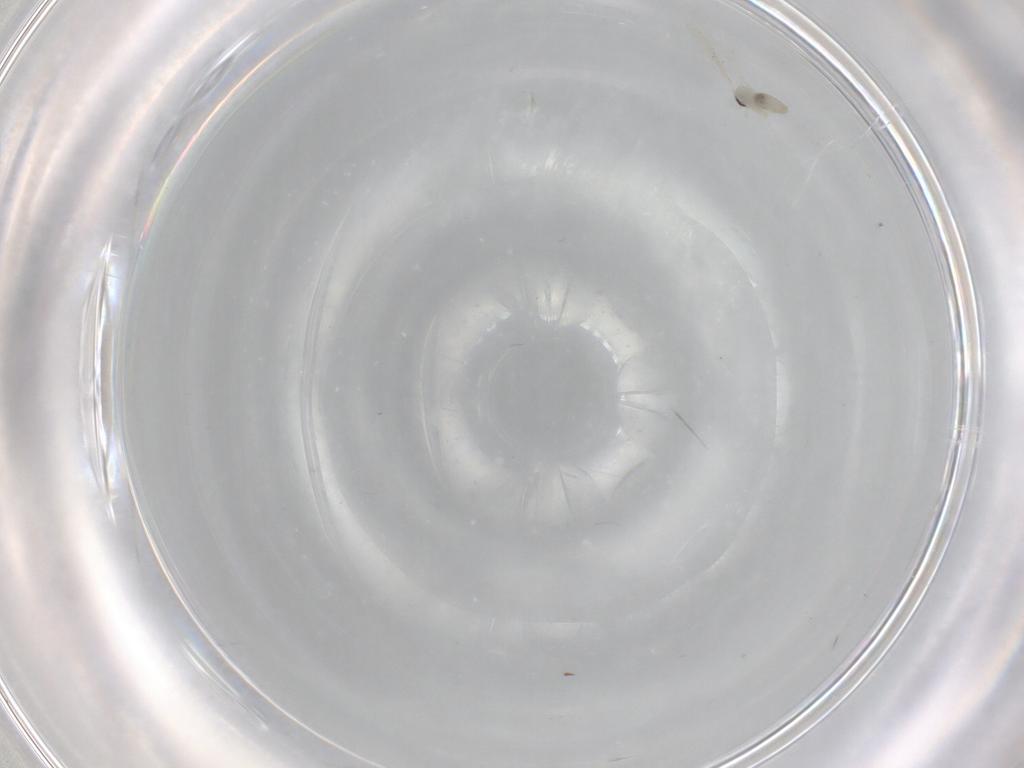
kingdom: Animalia
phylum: Arthropoda
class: Insecta
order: Diptera
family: Cecidomyiidae
